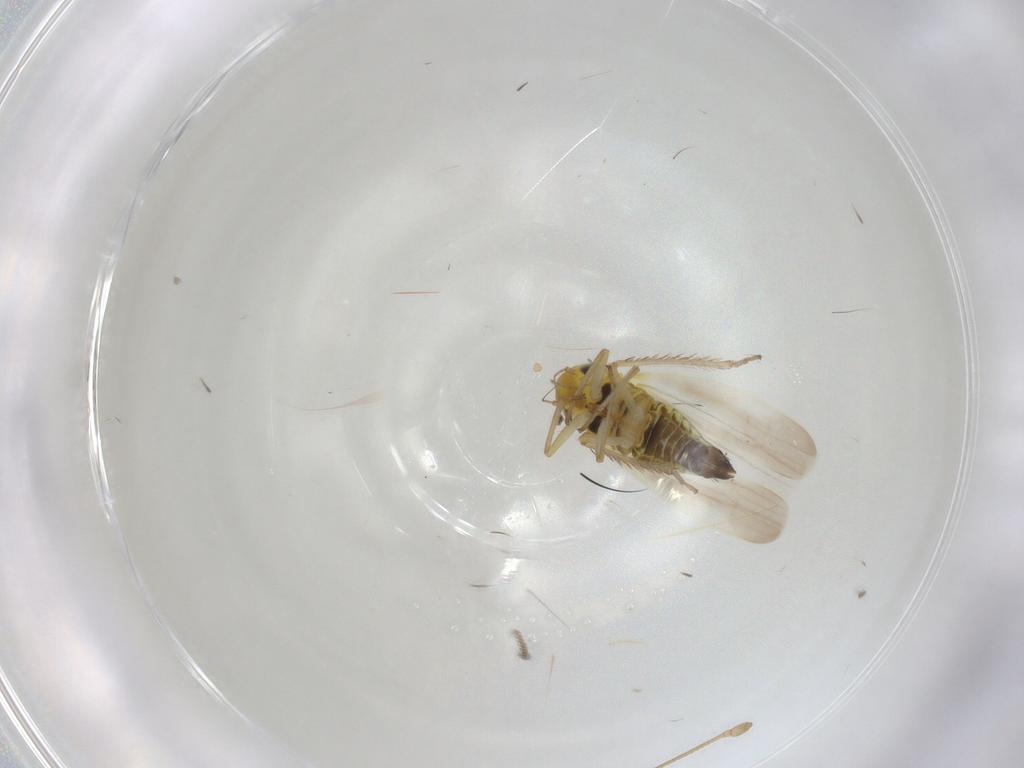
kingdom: Animalia
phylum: Arthropoda
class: Insecta
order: Hemiptera
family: Cicadellidae
